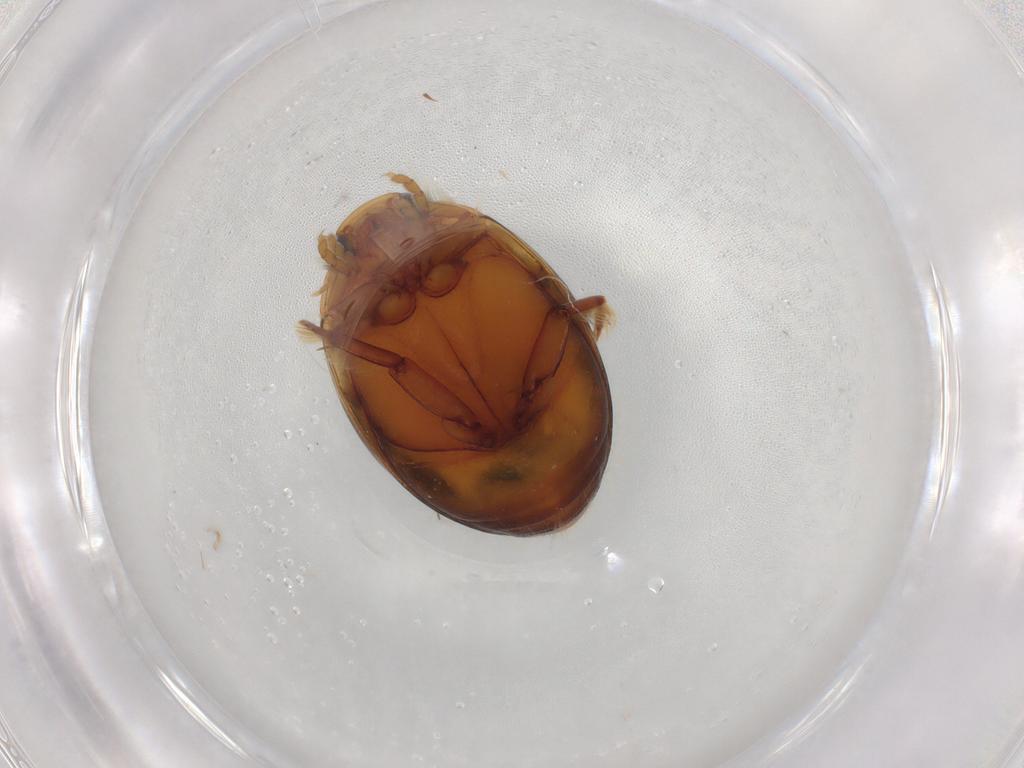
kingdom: Animalia
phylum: Arthropoda
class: Insecta
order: Coleoptera
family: Dytiscidae
